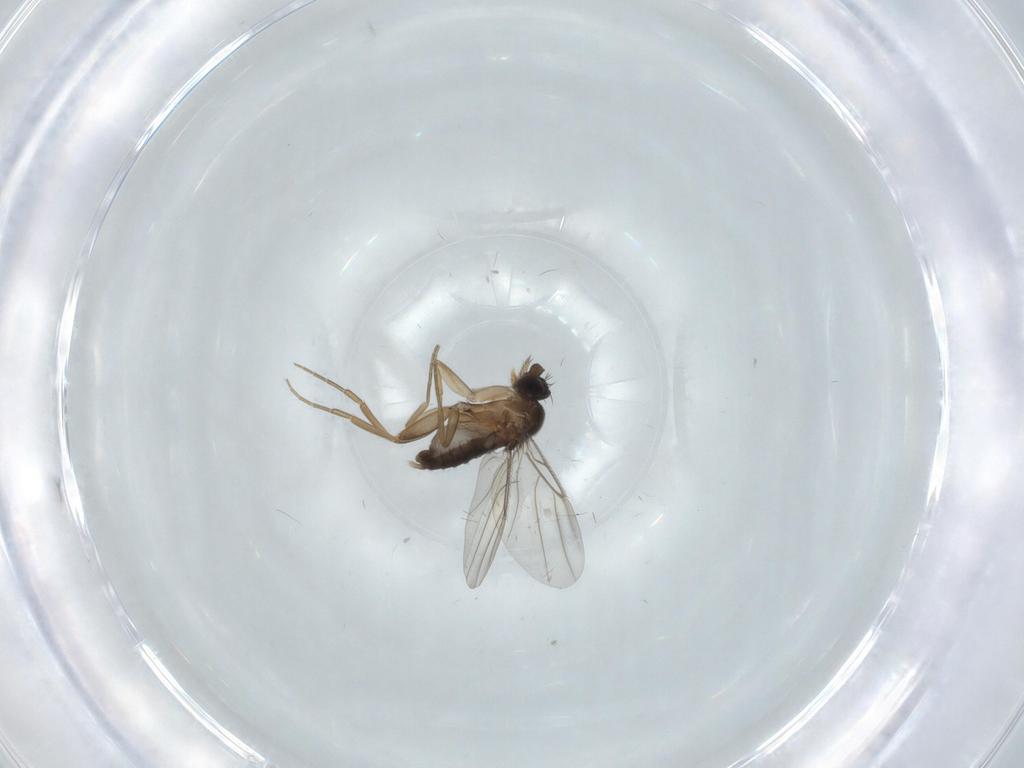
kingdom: Animalia
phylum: Arthropoda
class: Insecta
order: Diptera
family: Phoridae
